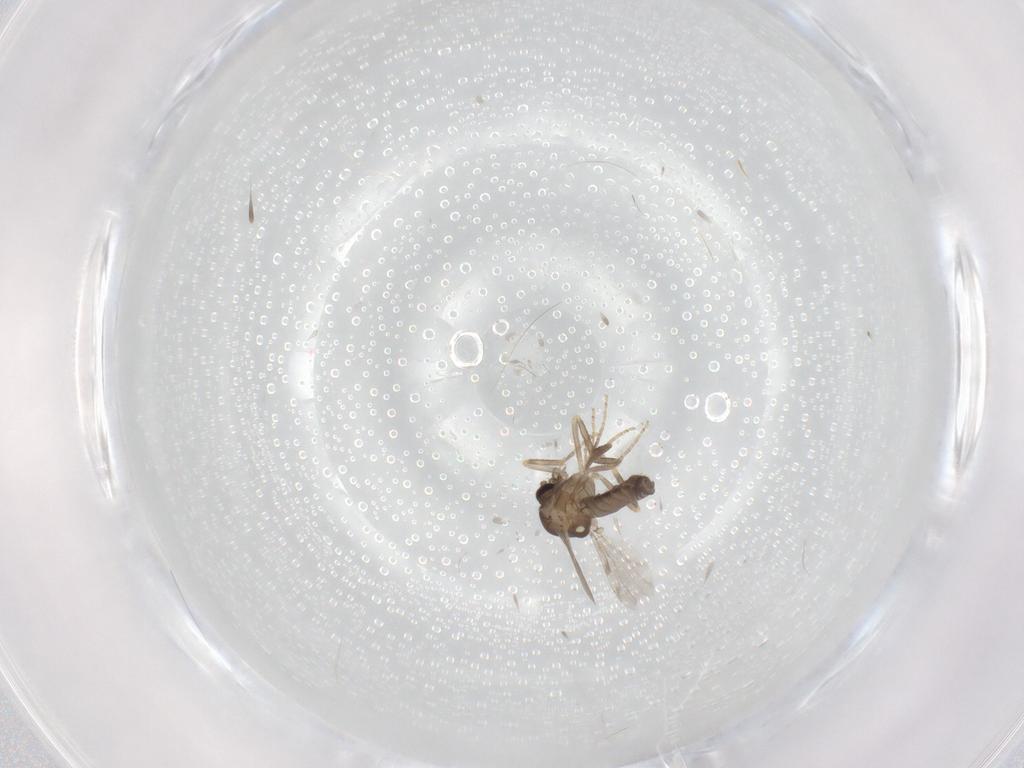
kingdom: Animalia
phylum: Arthropoda
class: Insecta
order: Diptera
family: Ceratopogonidae
